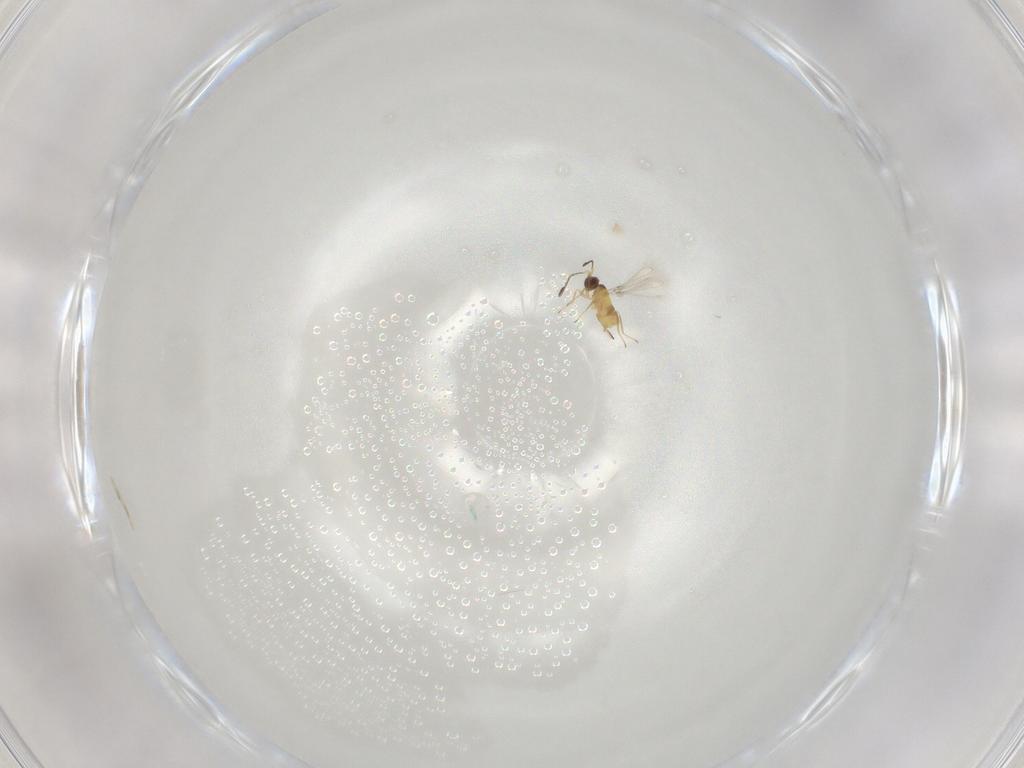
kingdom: Animalia
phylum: Arthropoda
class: Insecta
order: Hymenoptera
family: Mymaridae
